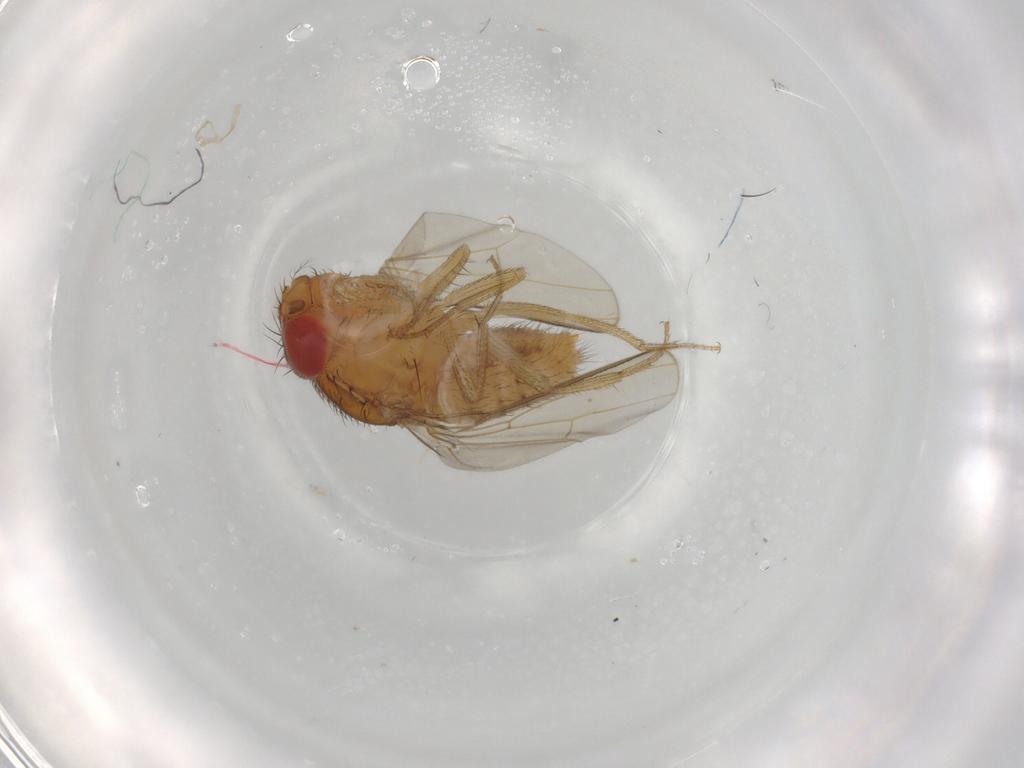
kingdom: Animalia
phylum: Arthropoda
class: Insecta
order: Diptera
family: Drosophilidae
